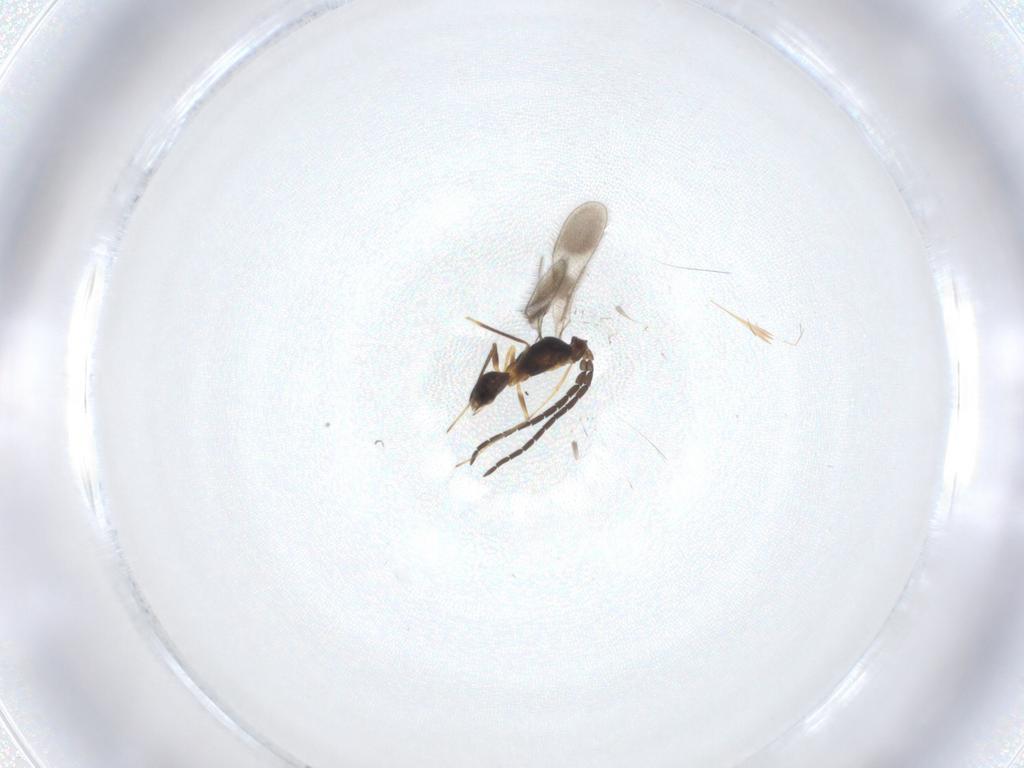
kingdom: Animalia
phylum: Arthropoda
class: Insecta
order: Hymenoptera
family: Mymaridae
